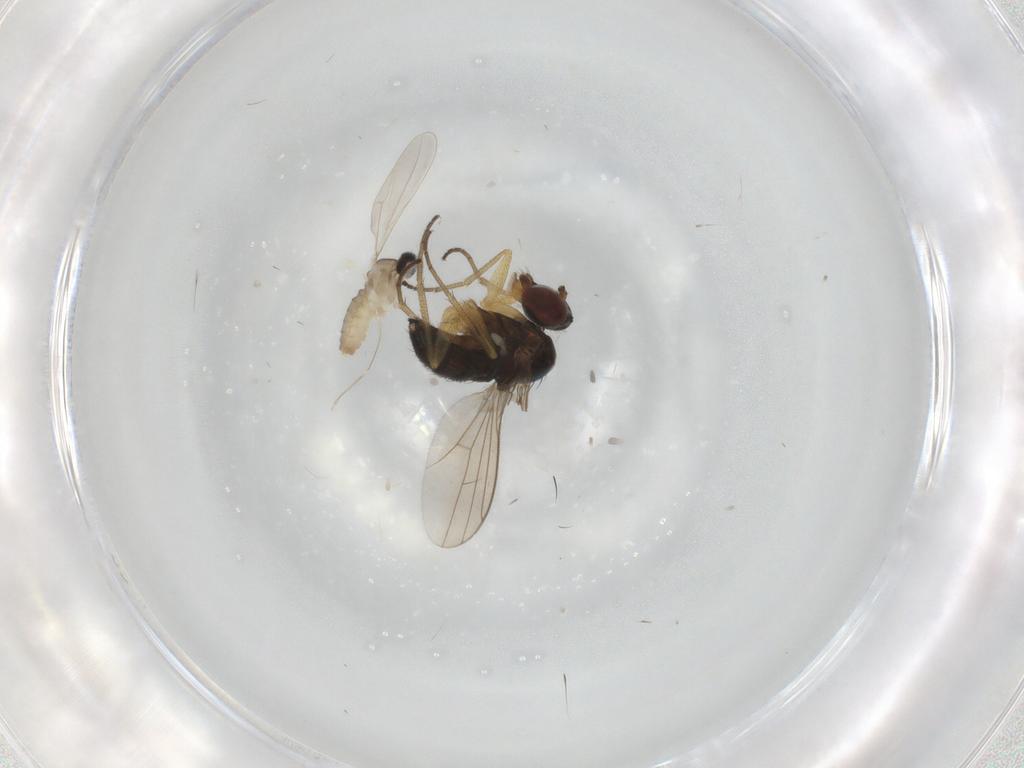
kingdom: Animalia
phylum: Arthropoda
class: Insecta
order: Diptera
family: Dolichopodidae
